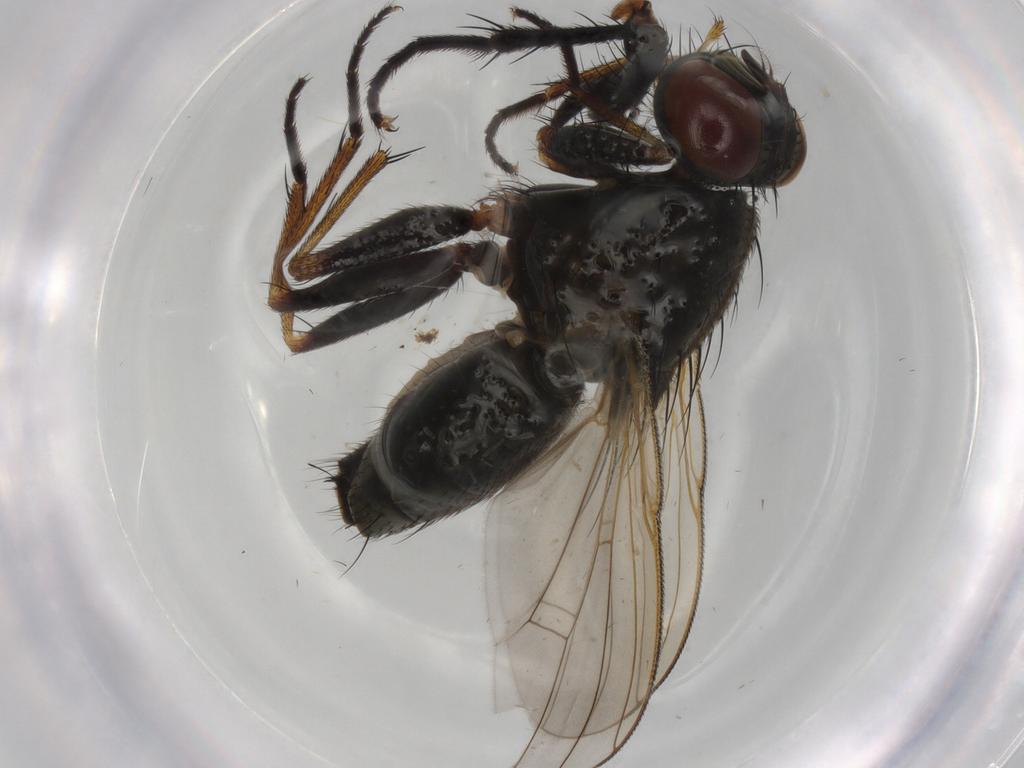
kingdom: Animalia
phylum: Arthropoda
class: Insecta
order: Diptera
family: Muscidae
